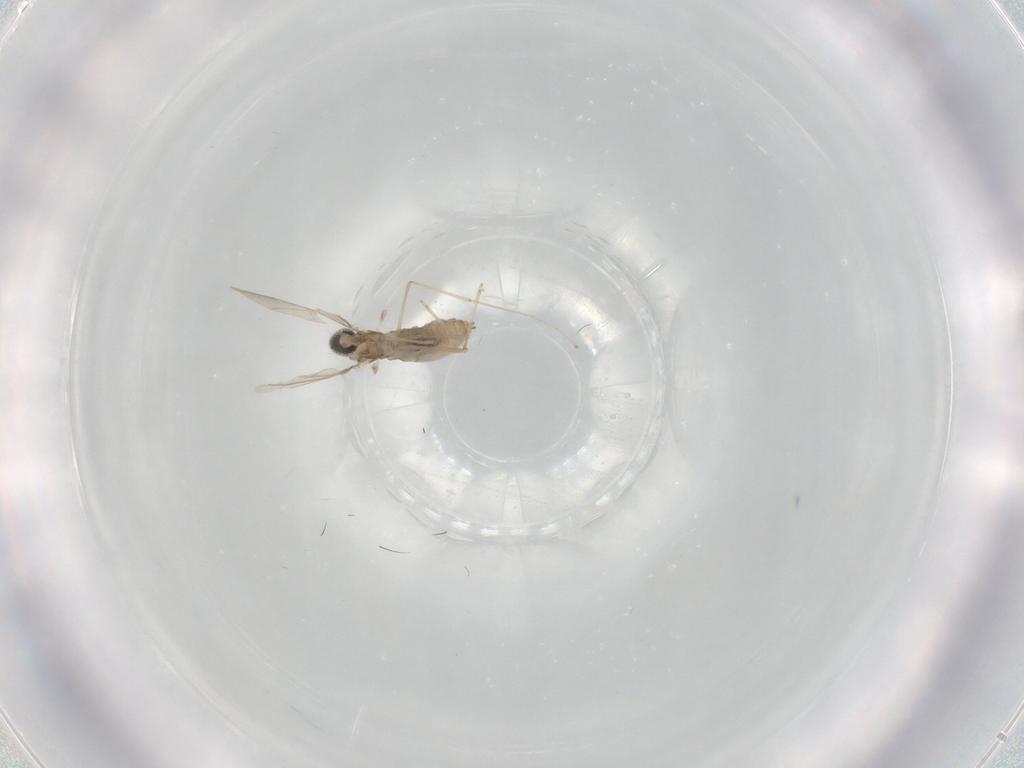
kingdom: Animalia
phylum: Arthropoda
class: Insecta
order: Diptera
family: Cecidomyiidae
